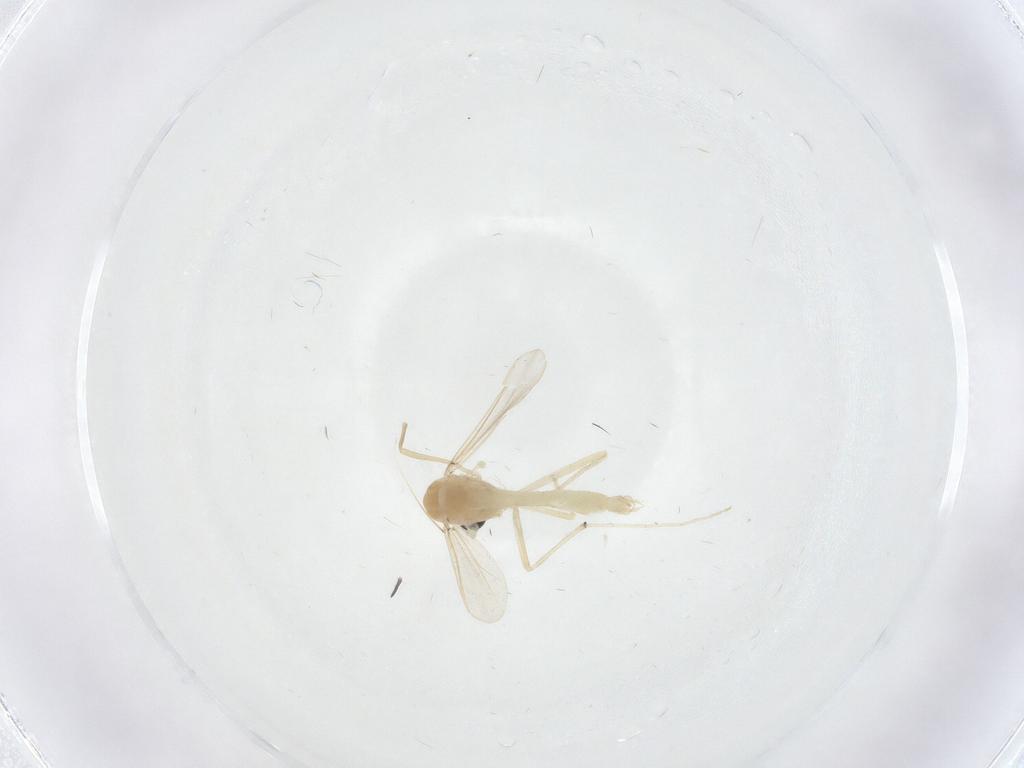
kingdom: Animalia
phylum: Arthropoda
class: Insecta
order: Diptera
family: Chironomidae
